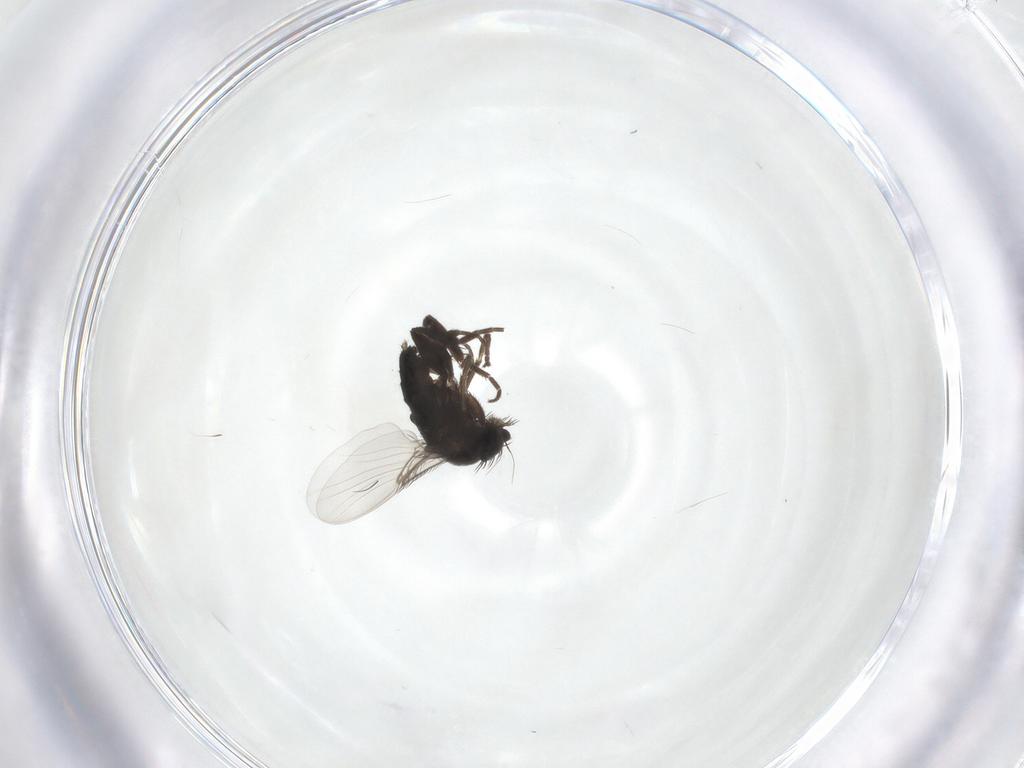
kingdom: Animalia
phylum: Arthropoda
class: Insecta
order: Diptera
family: Phoridae
